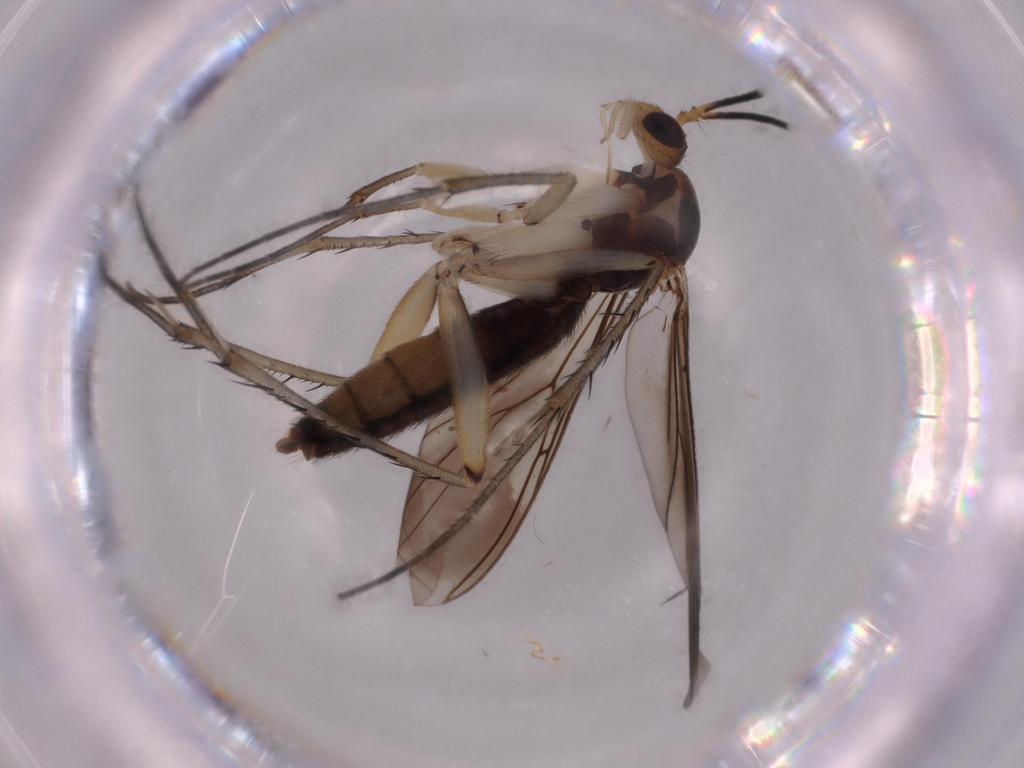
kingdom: Animalia
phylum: Arthropoda
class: Insecta
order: Diptera
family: Sciaridae
